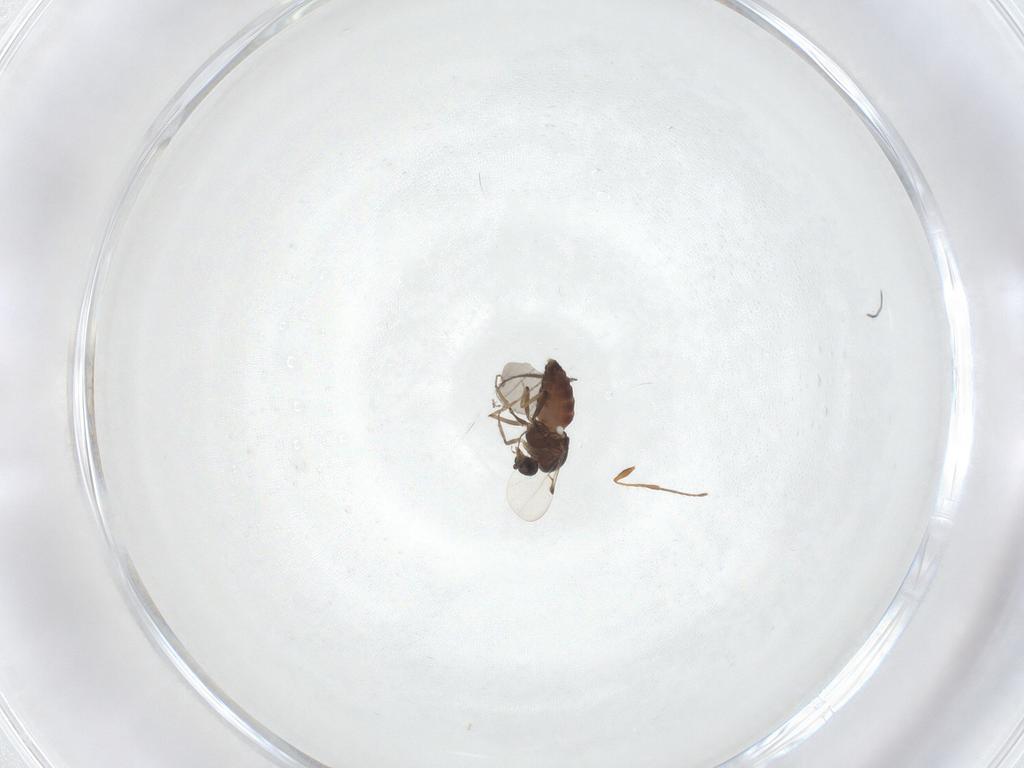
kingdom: Animalia
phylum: Arthropoda
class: Insecta
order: Diptera
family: Ceratopogonidae
